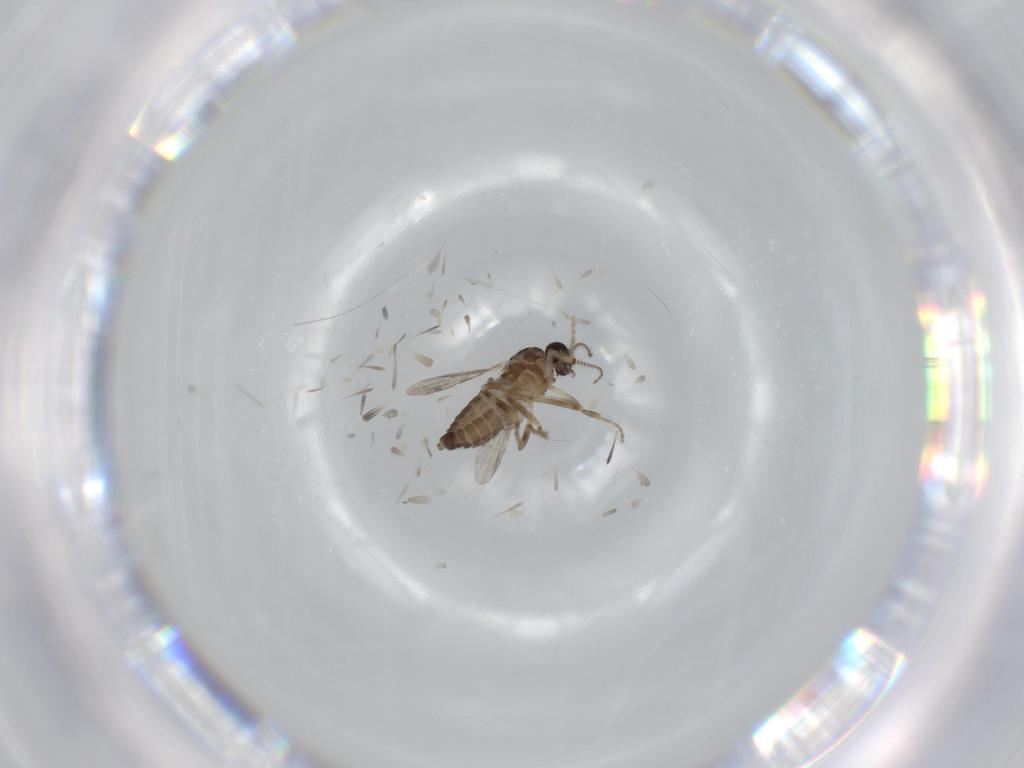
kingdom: Animalia
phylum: Arthropoda
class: Insecta
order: Diptera
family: Ceratopogonidae
